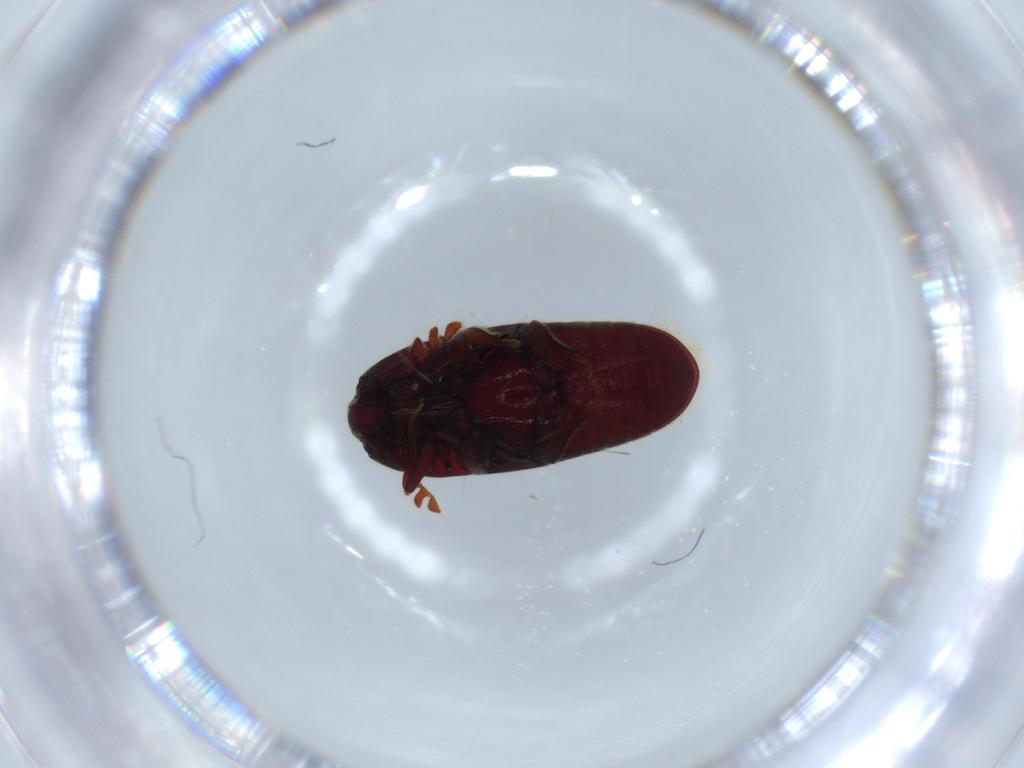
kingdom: Animalia
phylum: Arthropoda
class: Insecta
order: Coleoptera
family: Throscidae
